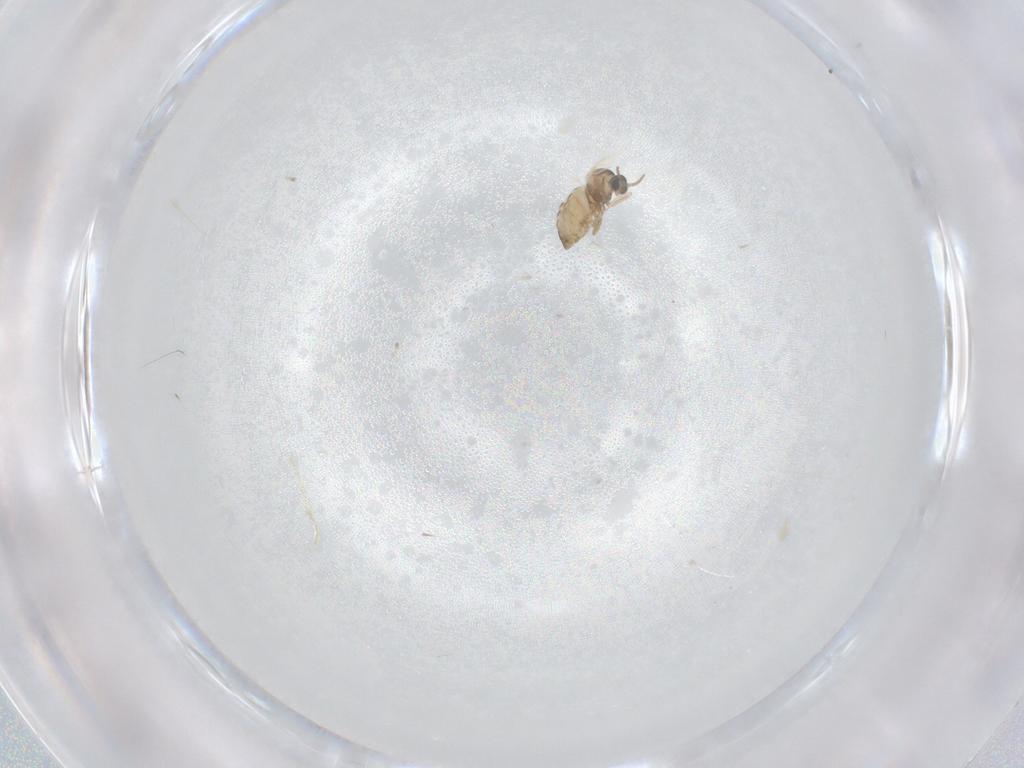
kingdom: Animalia
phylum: Arthropoda
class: Insecta
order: Diptera
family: Cecidomyiidae
